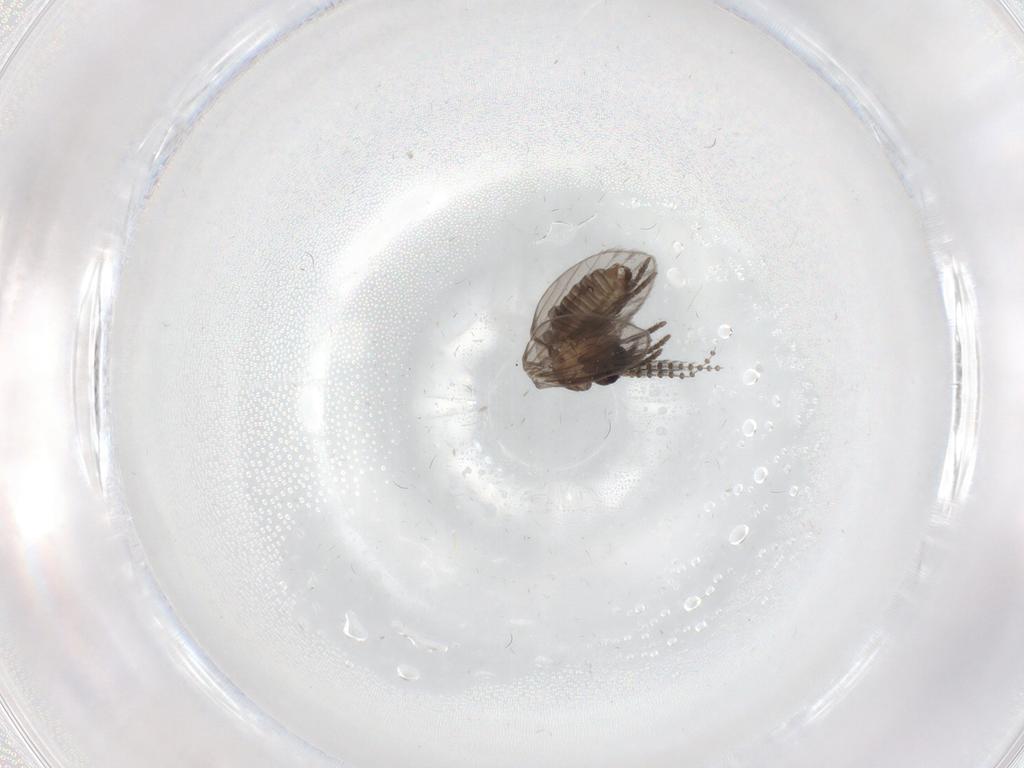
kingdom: Animalia
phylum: Arthropoda
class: Insecta
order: Diptera
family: Psychodidae
